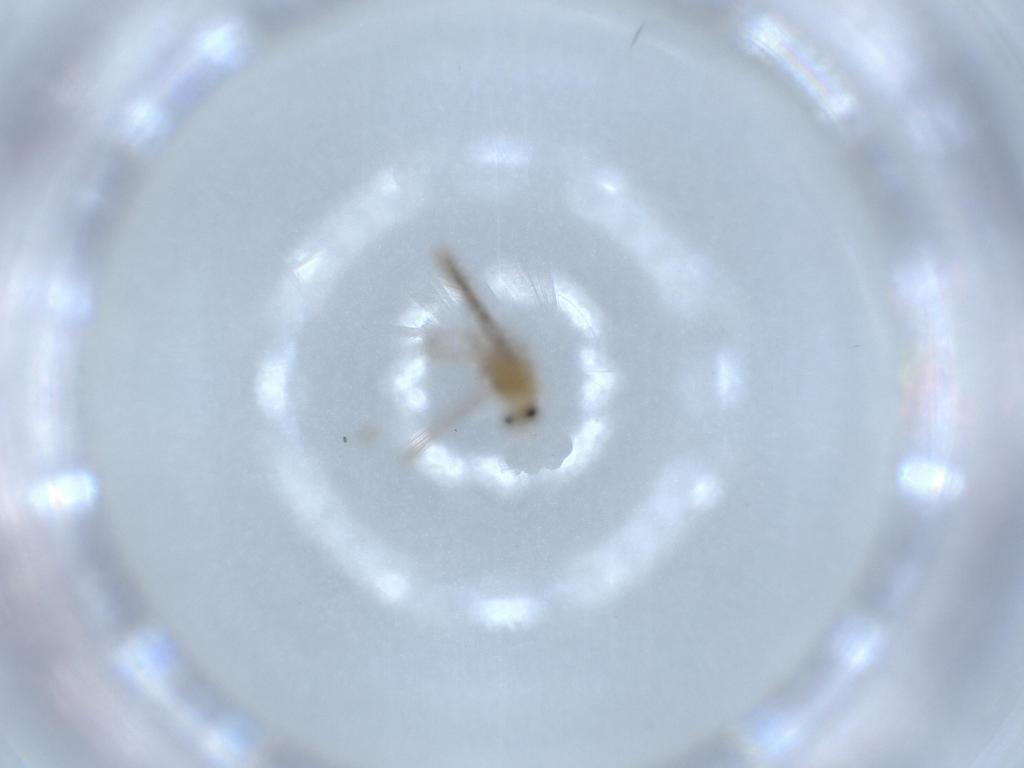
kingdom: Animalia
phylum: Arthropoda
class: Insecta
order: Diptera
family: Chironomidae
